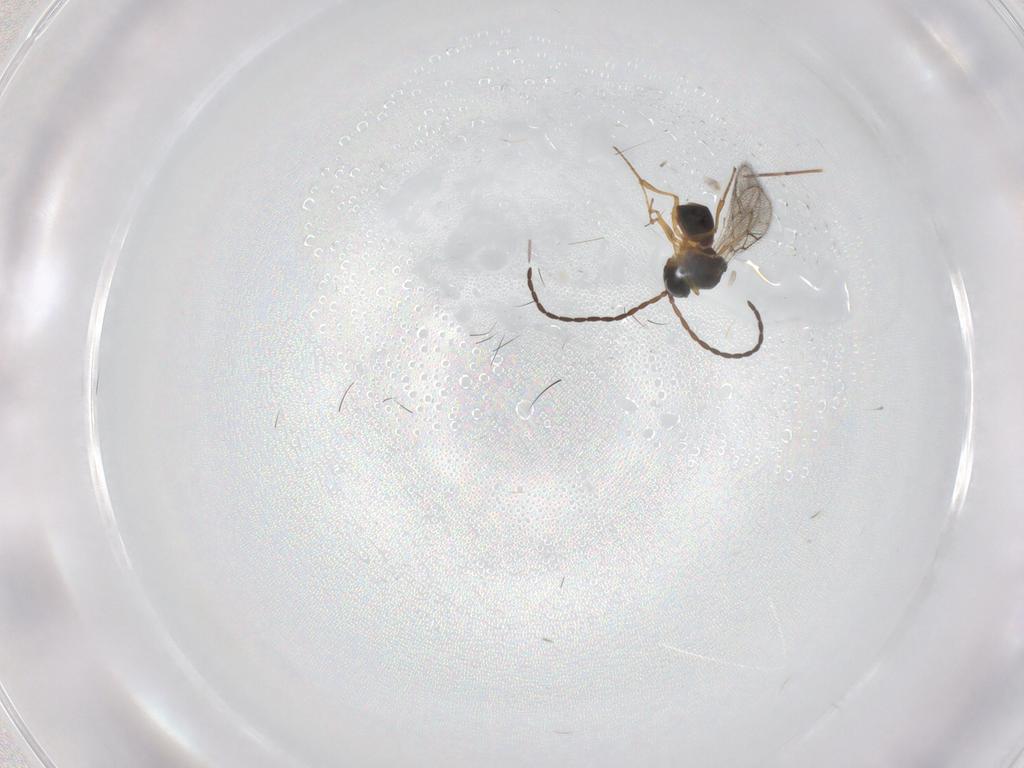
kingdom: Animalia
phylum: Arthropoda
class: Insecta
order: Hymenoptera
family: Figitidae
